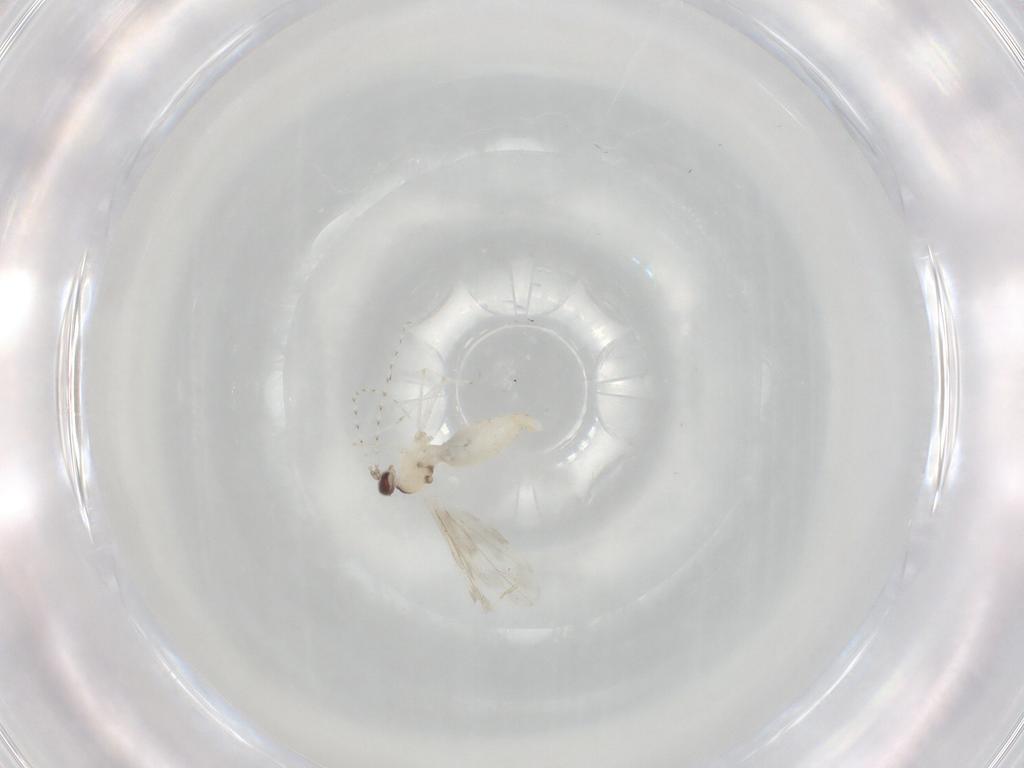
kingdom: Animalia
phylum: Arthropoda
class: Insecta
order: Diptera
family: Cecidomyiidae
